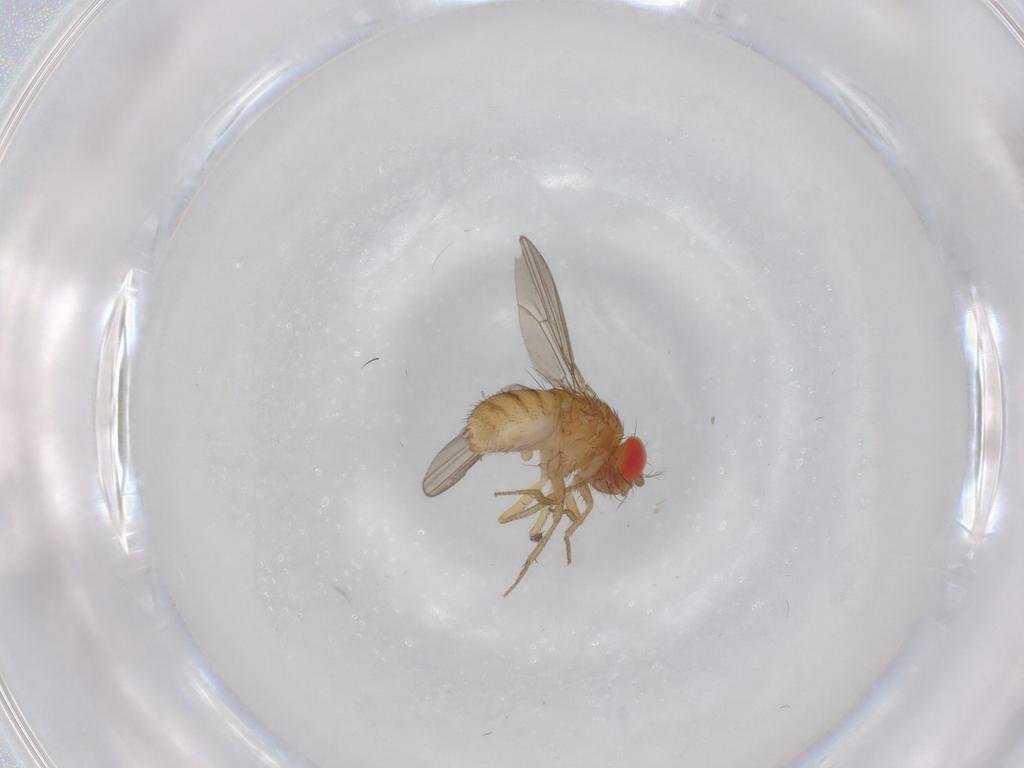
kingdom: Animalia
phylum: Arthropoda
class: Insecta
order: Diptera
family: Drosophilidae
